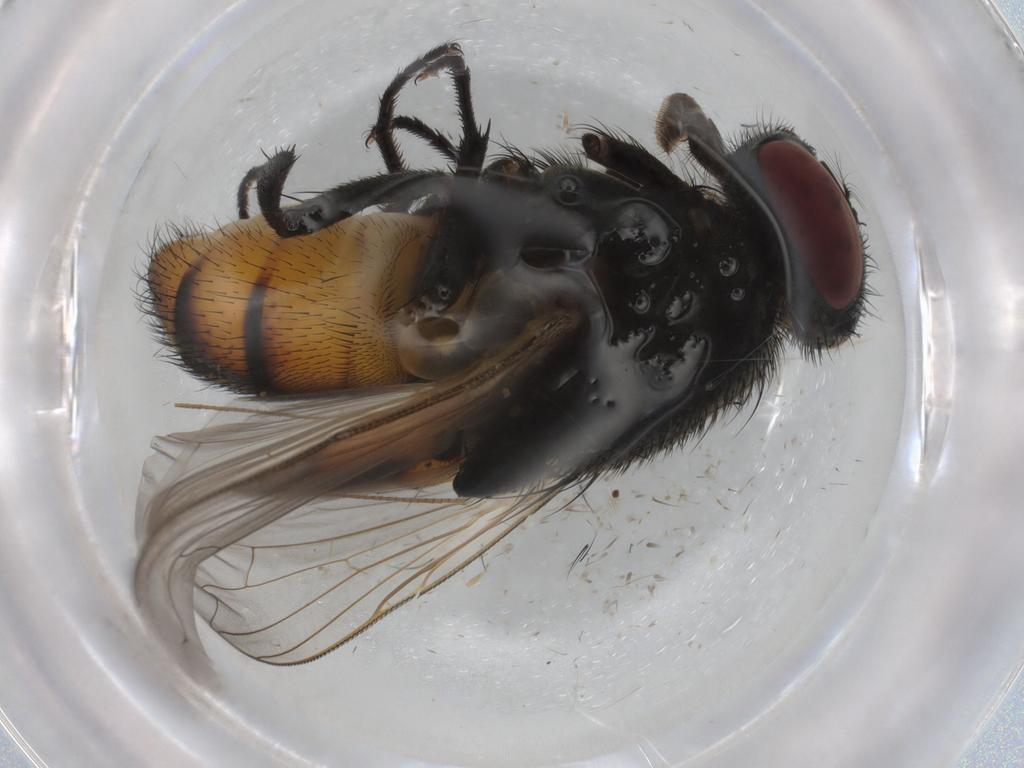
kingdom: Animalia
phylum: Arthropoda
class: Insecta
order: Diptera
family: Muscidae
